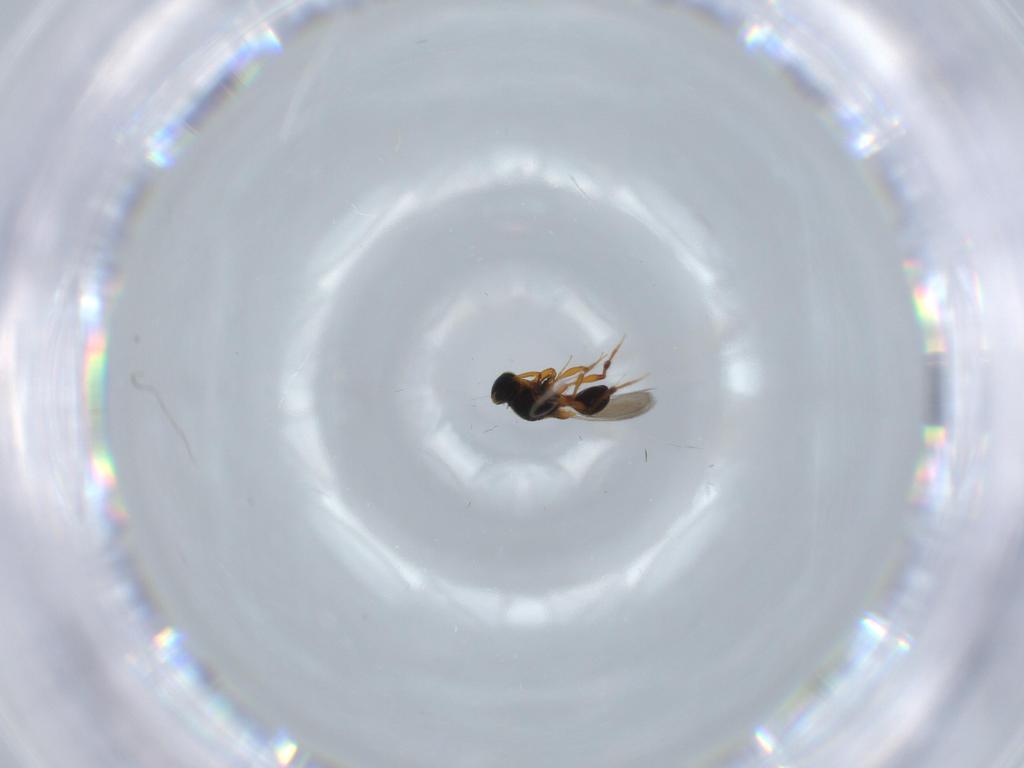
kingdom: Animalia
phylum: Arthropoda
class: Insecta
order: Hymenoptera
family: Platygastridae
